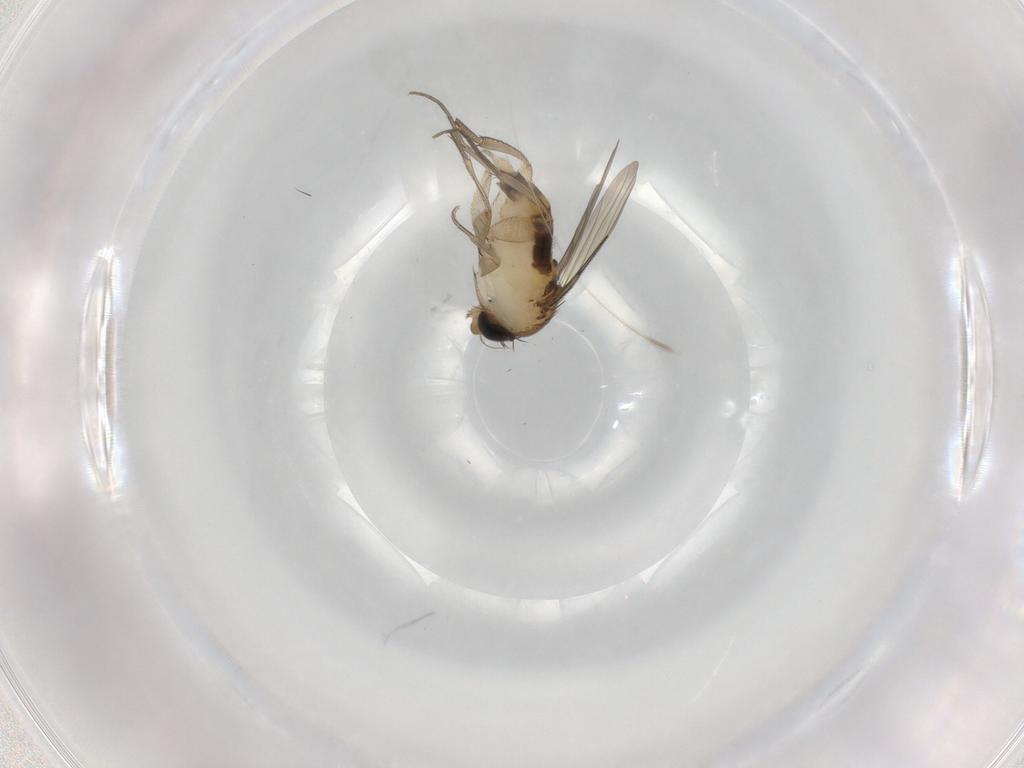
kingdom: Animalia
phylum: Arthropoda
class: Insecta
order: Diptera
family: Phoridae
